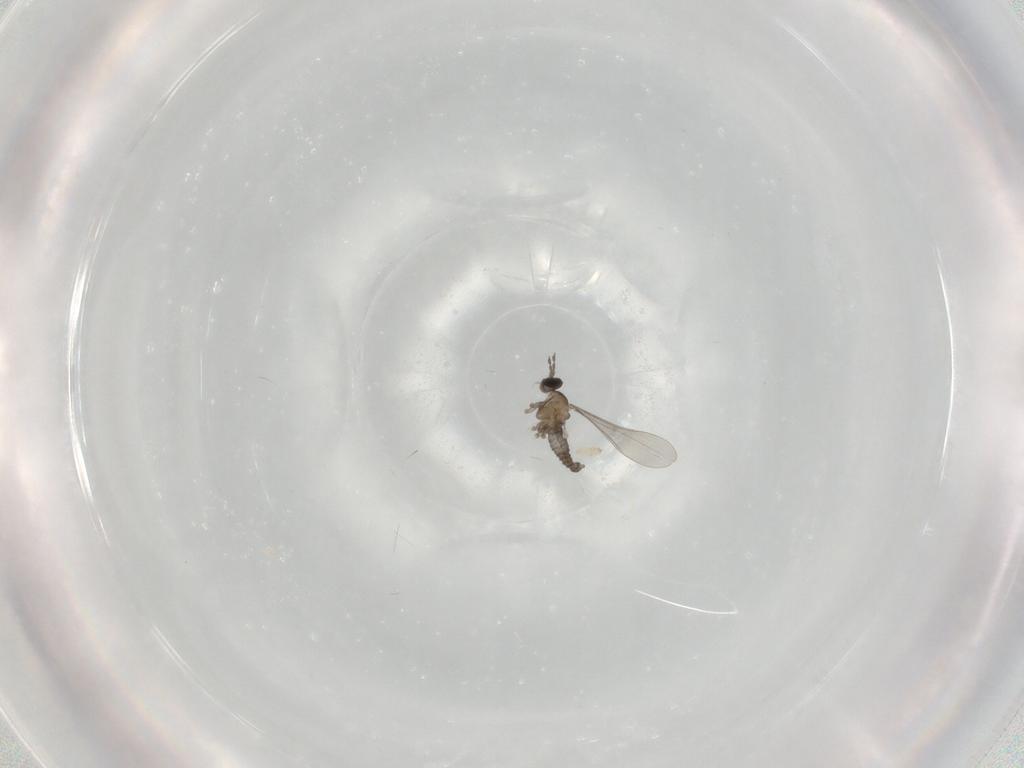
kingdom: Animalia
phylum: Arthropoda
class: Insecta
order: Diptera
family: Cecidomyiidae
